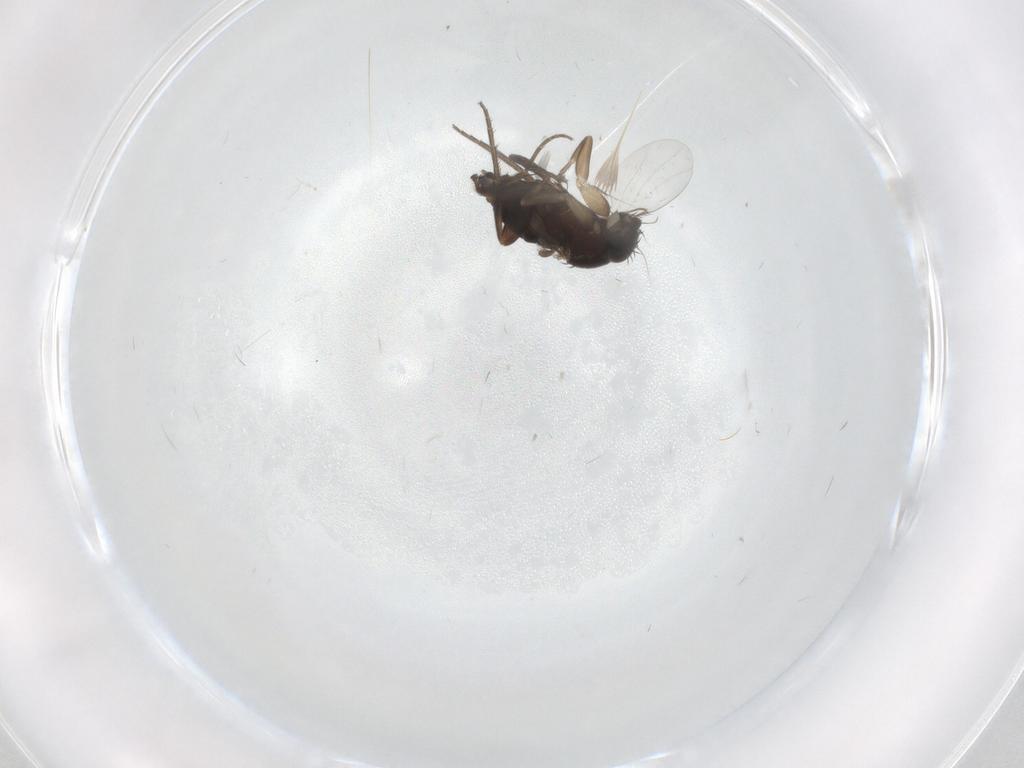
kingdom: Animalia
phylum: Arthropoda
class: Insecta
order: Diptera
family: Phoridae
